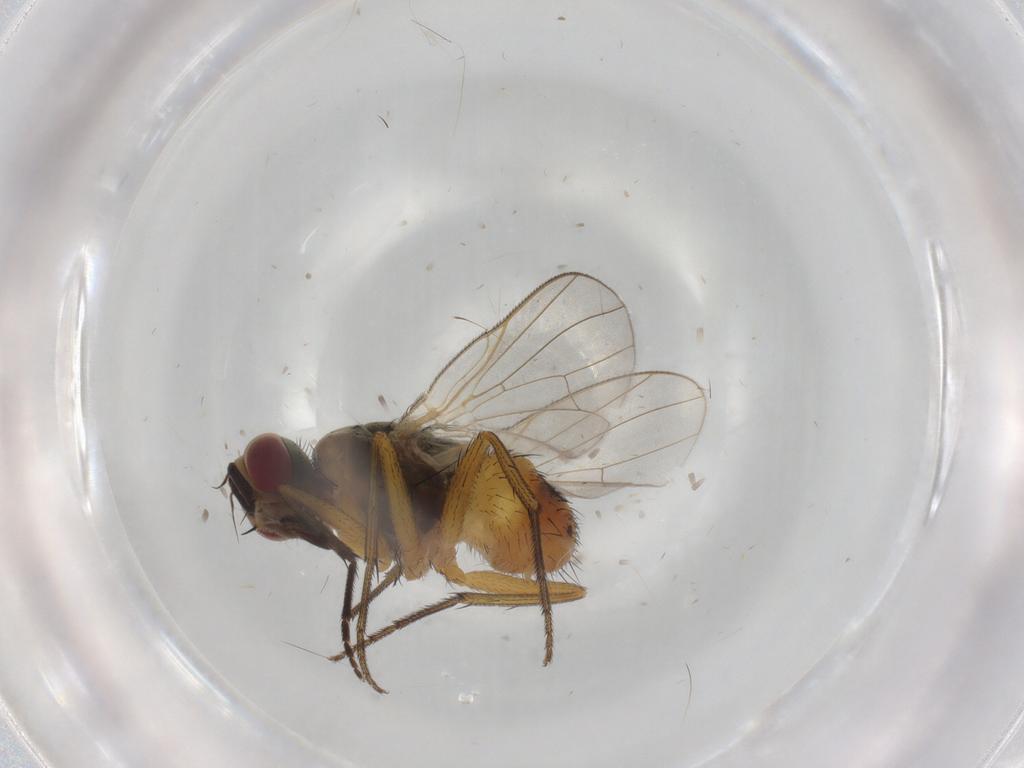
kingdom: Animalia
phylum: Arthropoda
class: Insecta
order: Diptera
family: Muscidae
